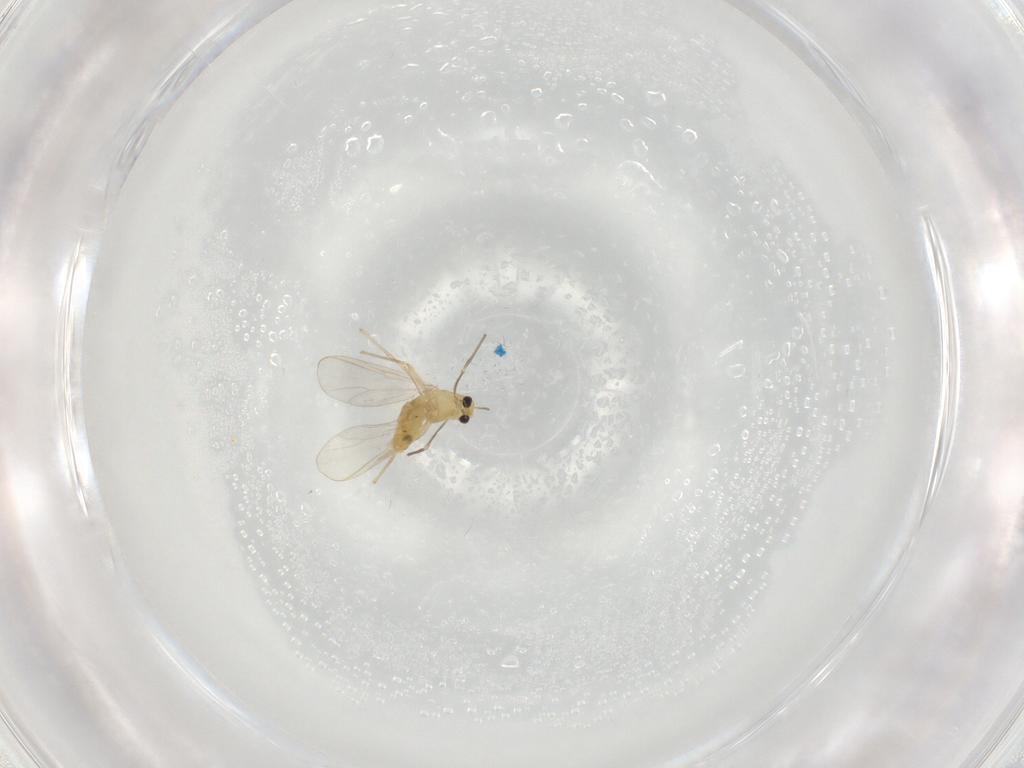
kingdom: Animalia
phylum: Arthropoda
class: Insecta
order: Diptera
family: Chironomidae
